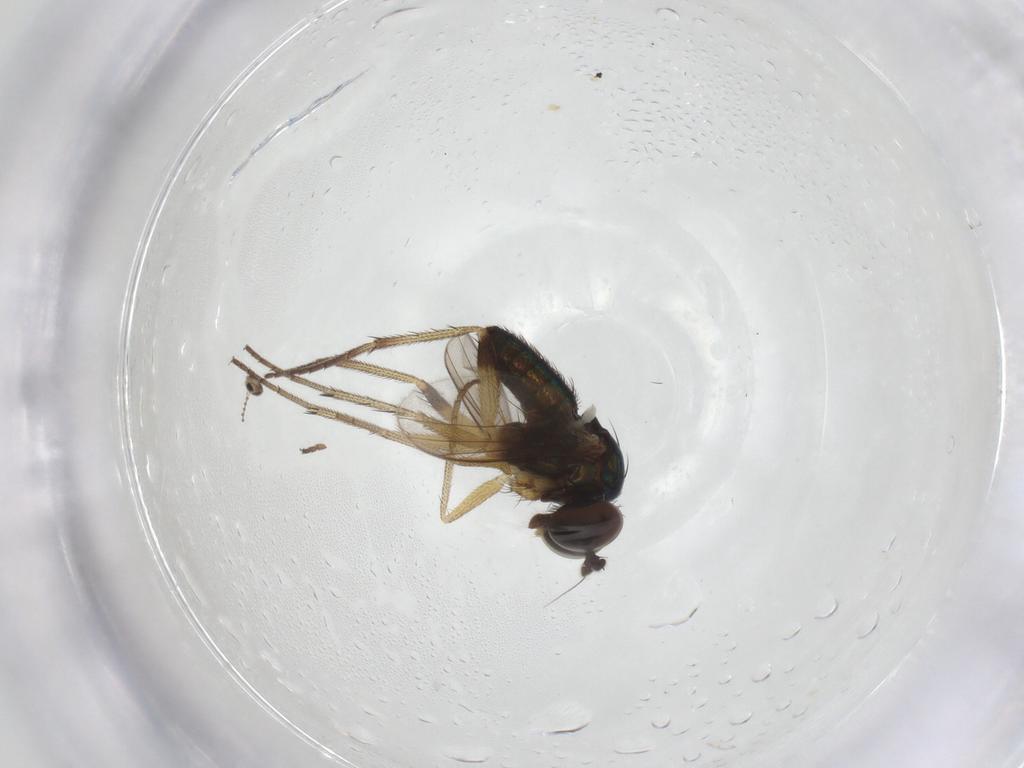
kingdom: Animalia
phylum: Arthropoda
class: Insecta
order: Diptera
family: Dolichopodidae
